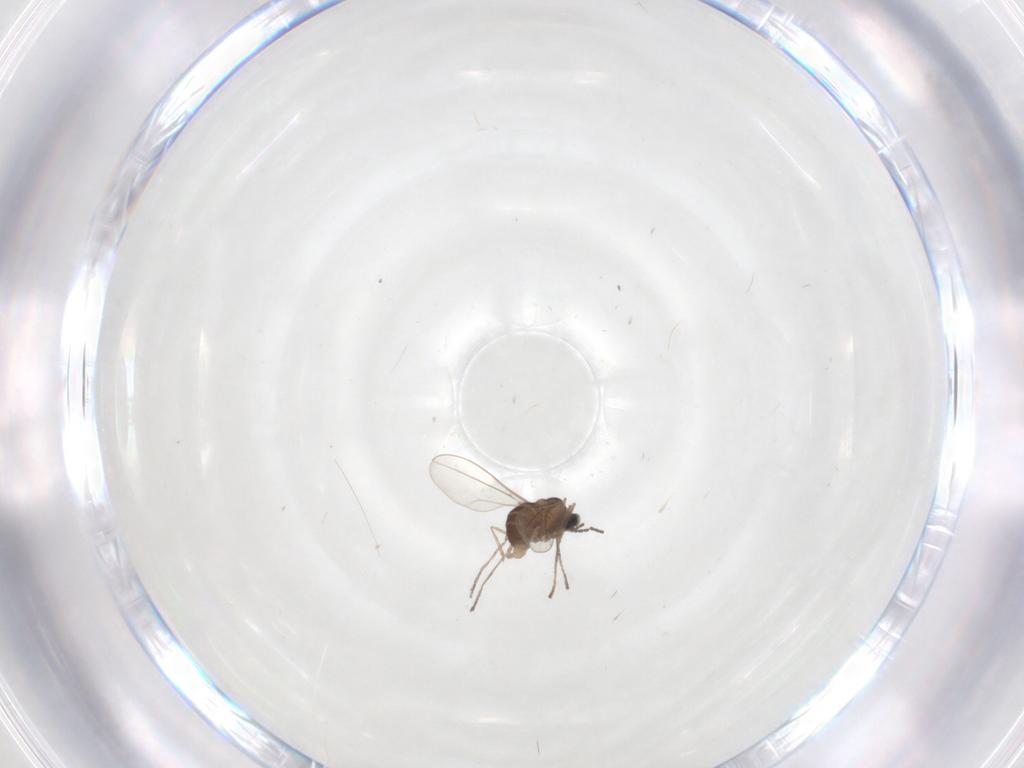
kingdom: Animalia
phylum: Arthropoda
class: Insecta
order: Diptera
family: Cecidomyiidae
